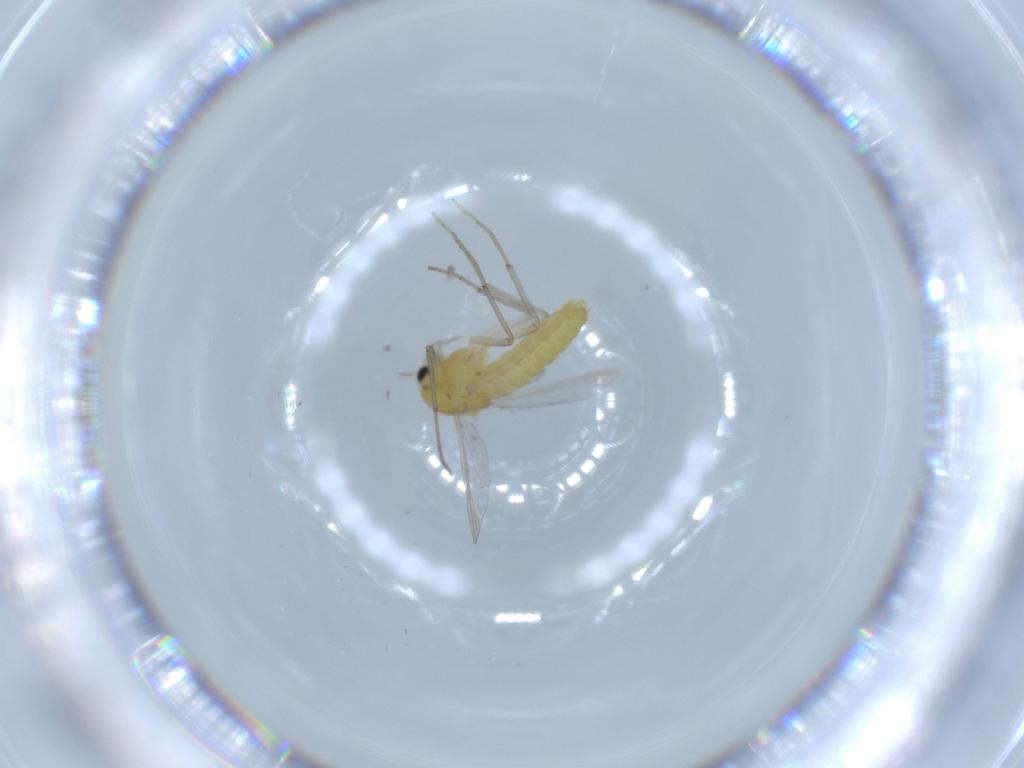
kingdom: Animalia
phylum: Arthropoda
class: Insecta
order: Diptera
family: Chironomidae
